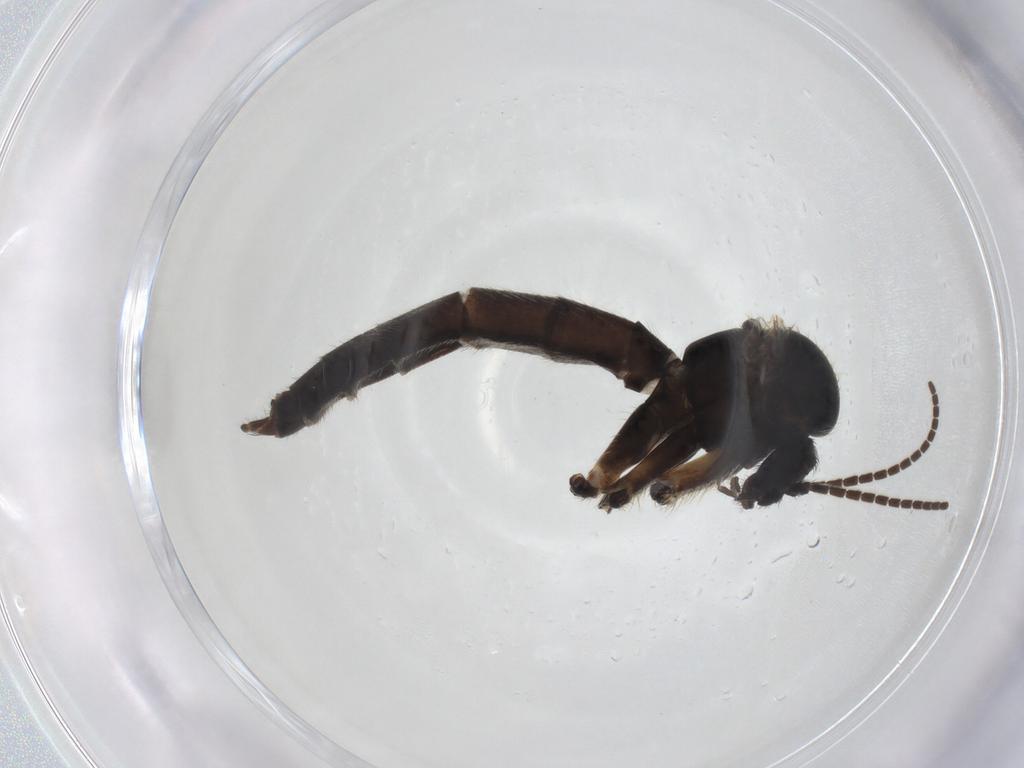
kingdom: Animalia
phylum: Arthropoda
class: Insecta
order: Diptera
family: Mycetophilidae
